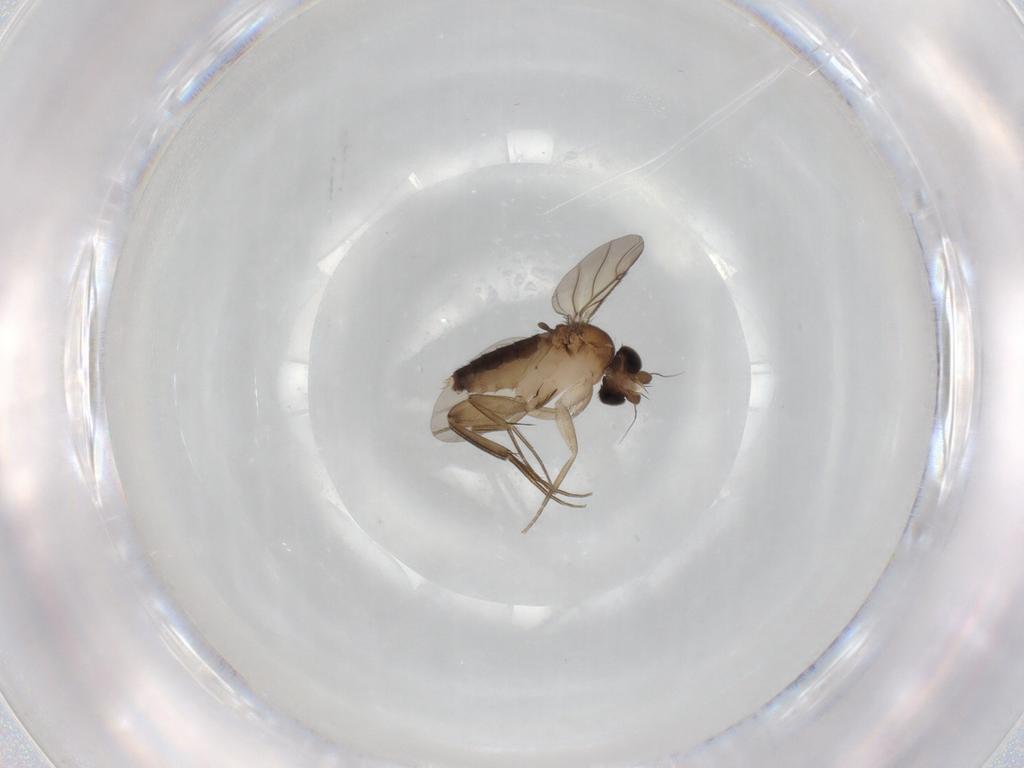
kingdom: Animalia
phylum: Arthropoda
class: Insecta
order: Diptera
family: Phoridae
